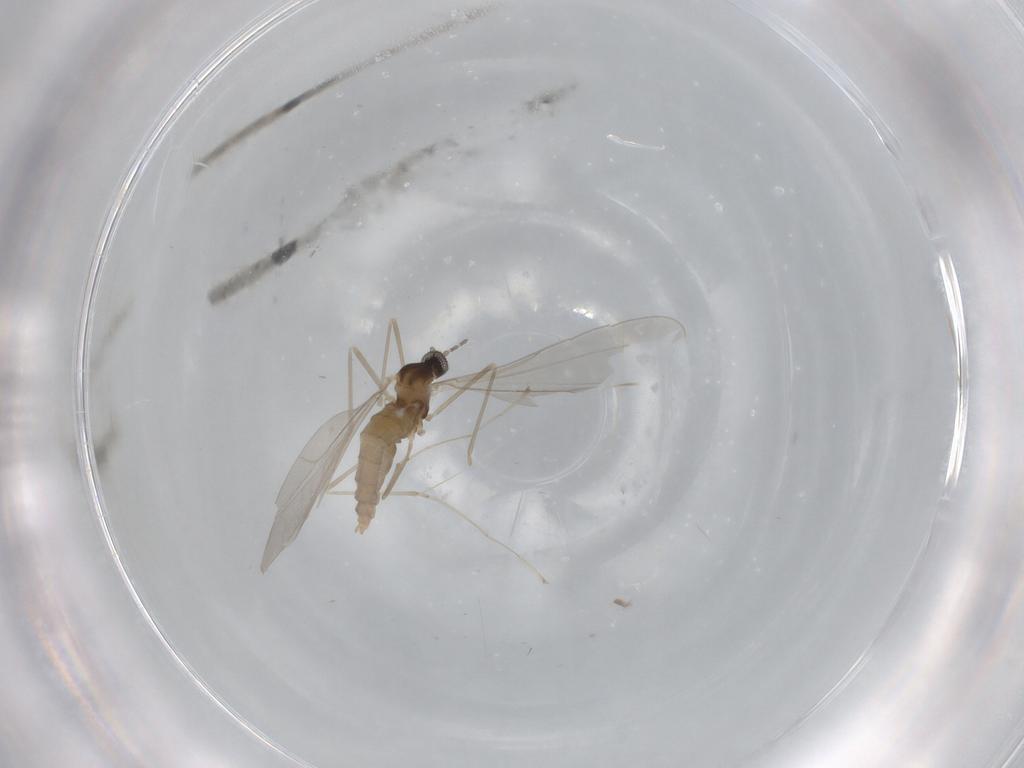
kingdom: Animalia
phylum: Arthropoda
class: Insecta
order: Diptera
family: Cecidomyiidae
